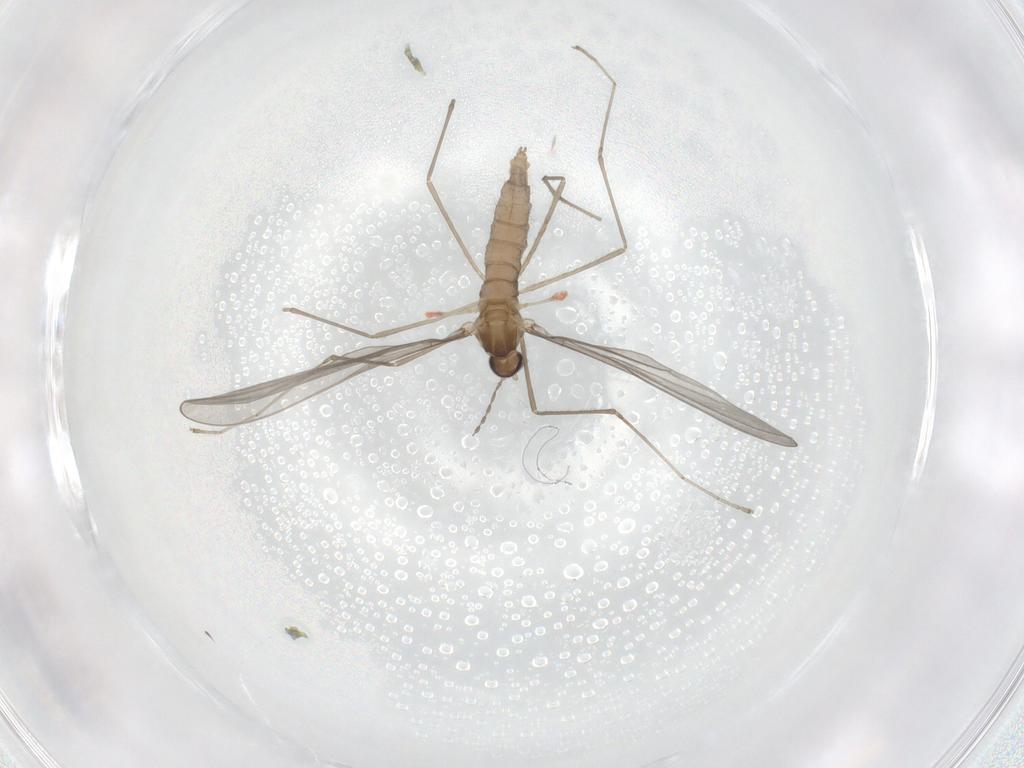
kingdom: Animalia
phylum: Arthropoda
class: Insecta
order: Diptera
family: Cecidomyiidae
